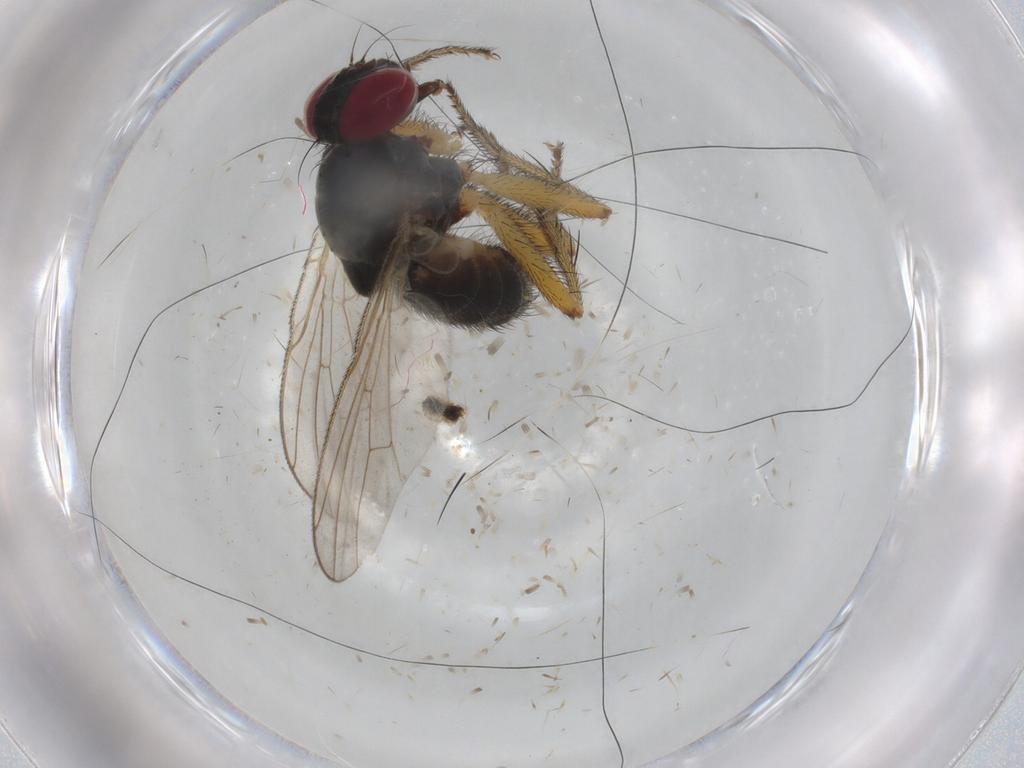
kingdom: Animalia
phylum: Arthropoda
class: Insecta
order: Diptera
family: Muscidae
